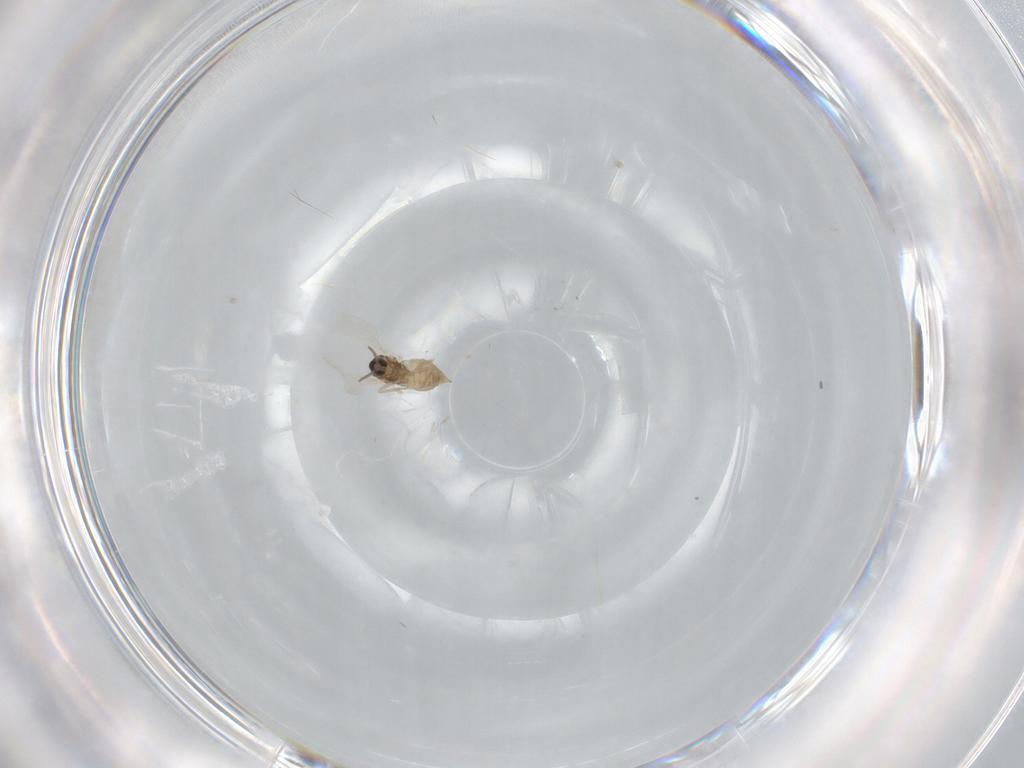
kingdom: Animalia
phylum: Arthropoda
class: Insecta
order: Diptera
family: Cecidomyiidae
